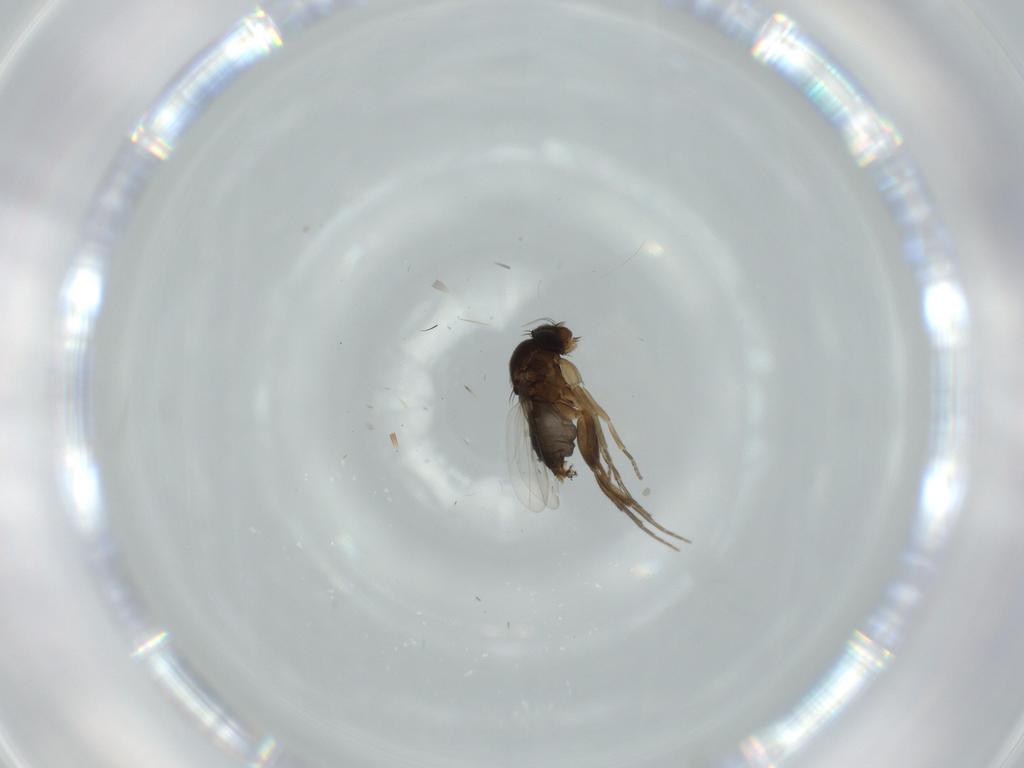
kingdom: Animalia
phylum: Arthropoda
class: Insecta
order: Diptera
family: Phoridae
